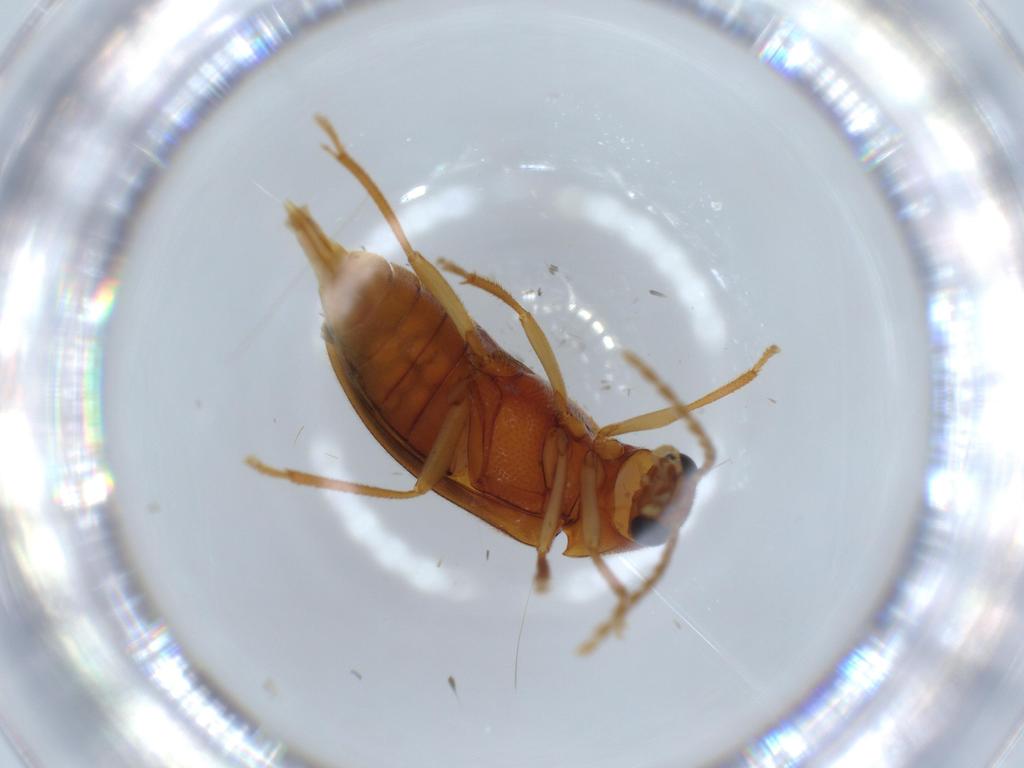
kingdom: Animalia
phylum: Arthropoda
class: Insecta
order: Coleoptera
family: Ptilodactylidae
